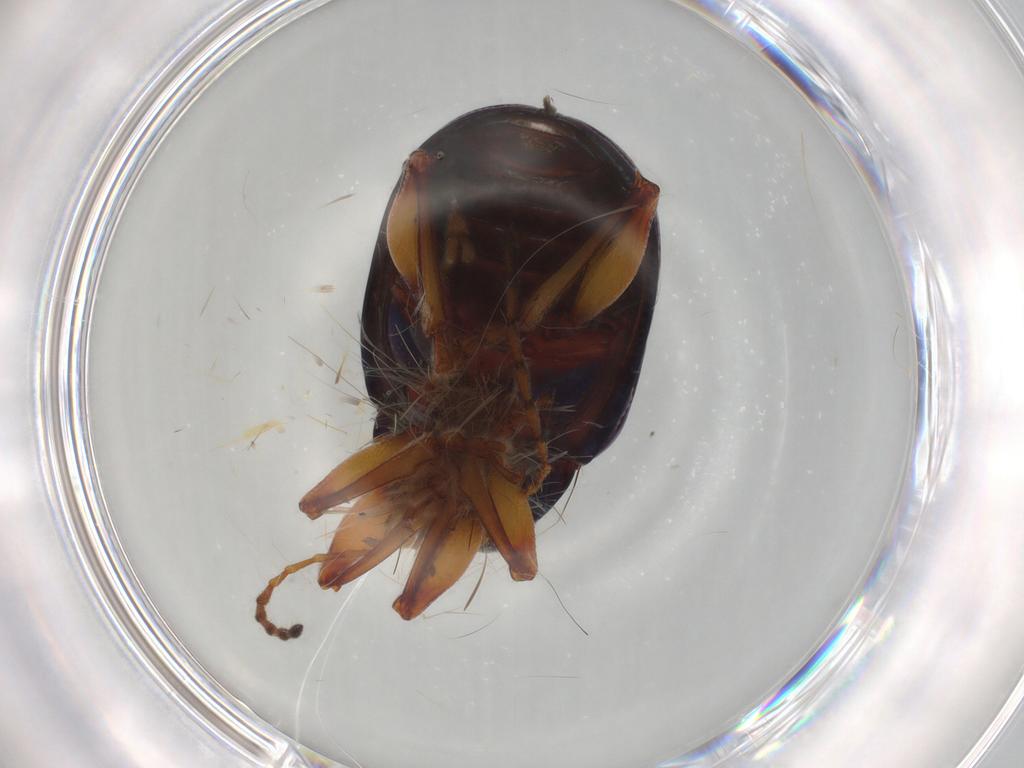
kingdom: Animalia
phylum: Arthropoda
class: Insecta
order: Coleoptera
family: Chrysomelidae
